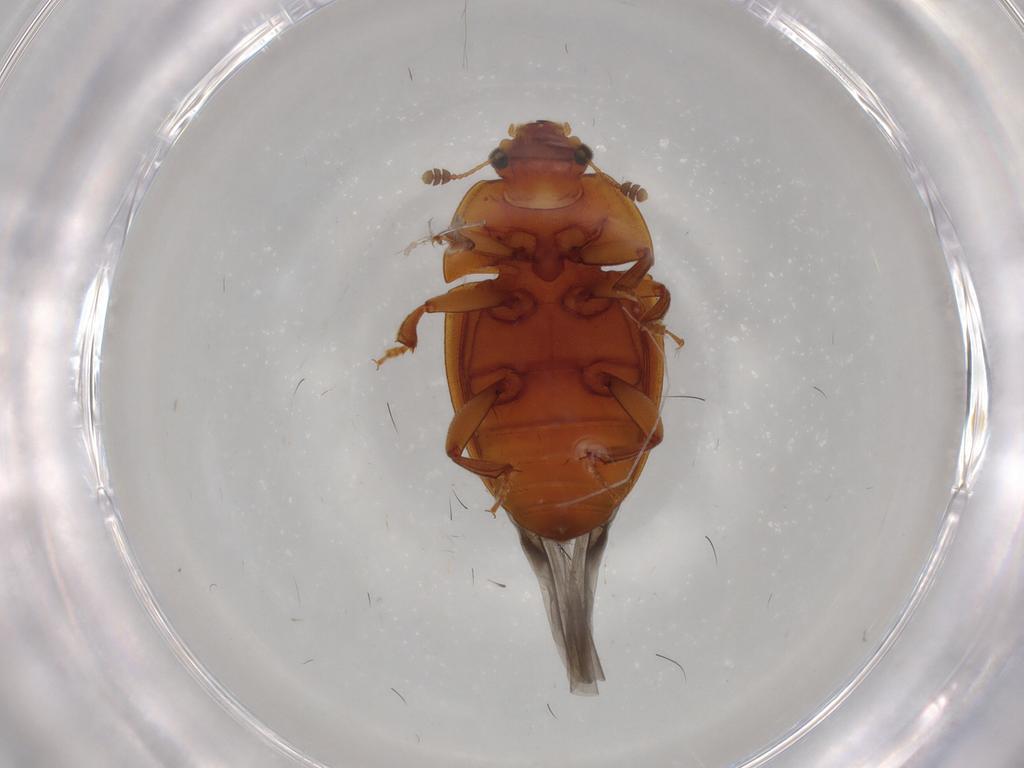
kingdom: Animalia
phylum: Arthropoda
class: Insecta
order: Coleoptera
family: Nitidulidae
